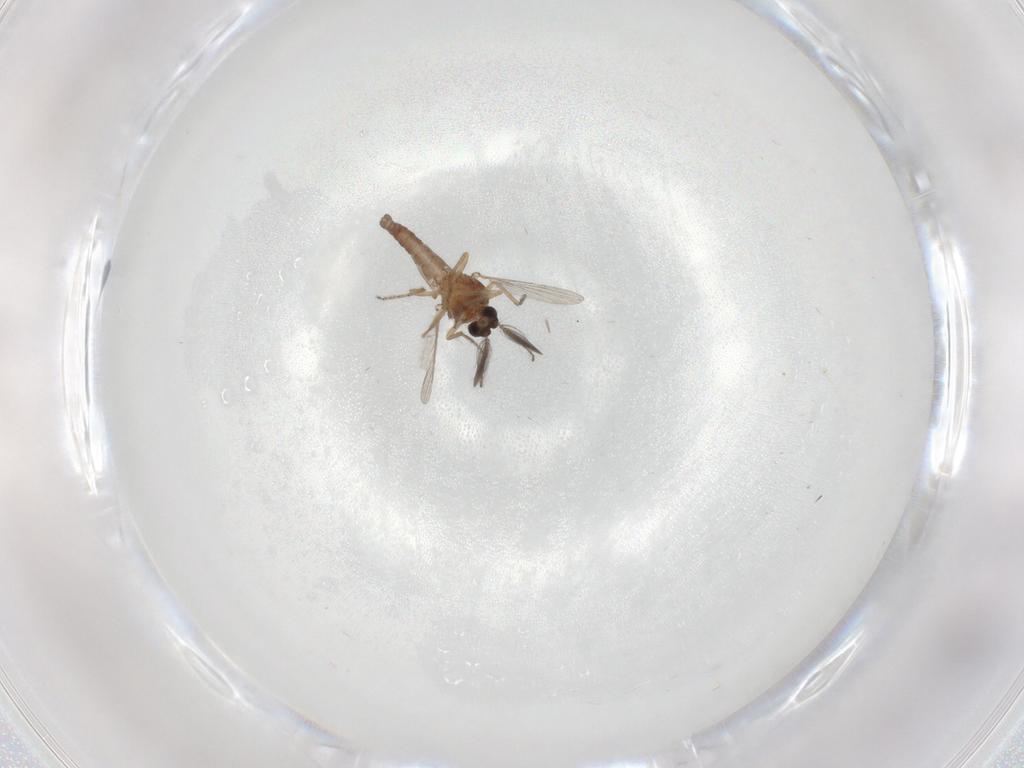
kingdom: Animalia
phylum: Arthropoda
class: Insecta
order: Diptera
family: Ceratopogonidae
